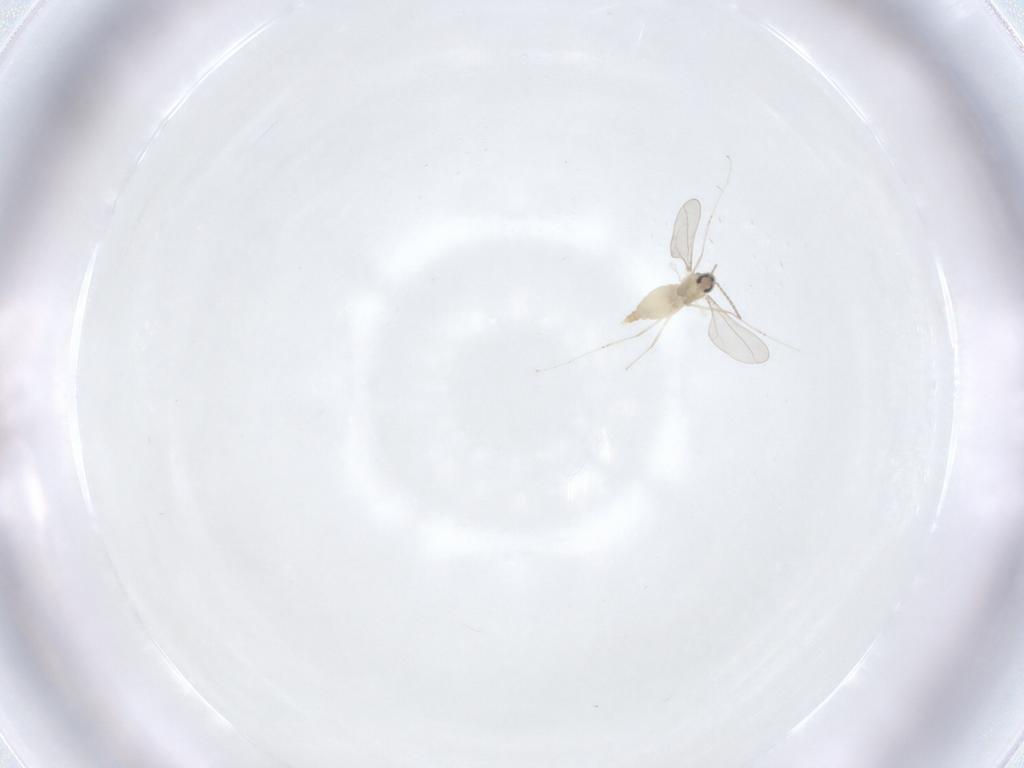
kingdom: Animalia
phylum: Arthropoda
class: Insecta
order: Diptera
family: Cecidomyiidae
